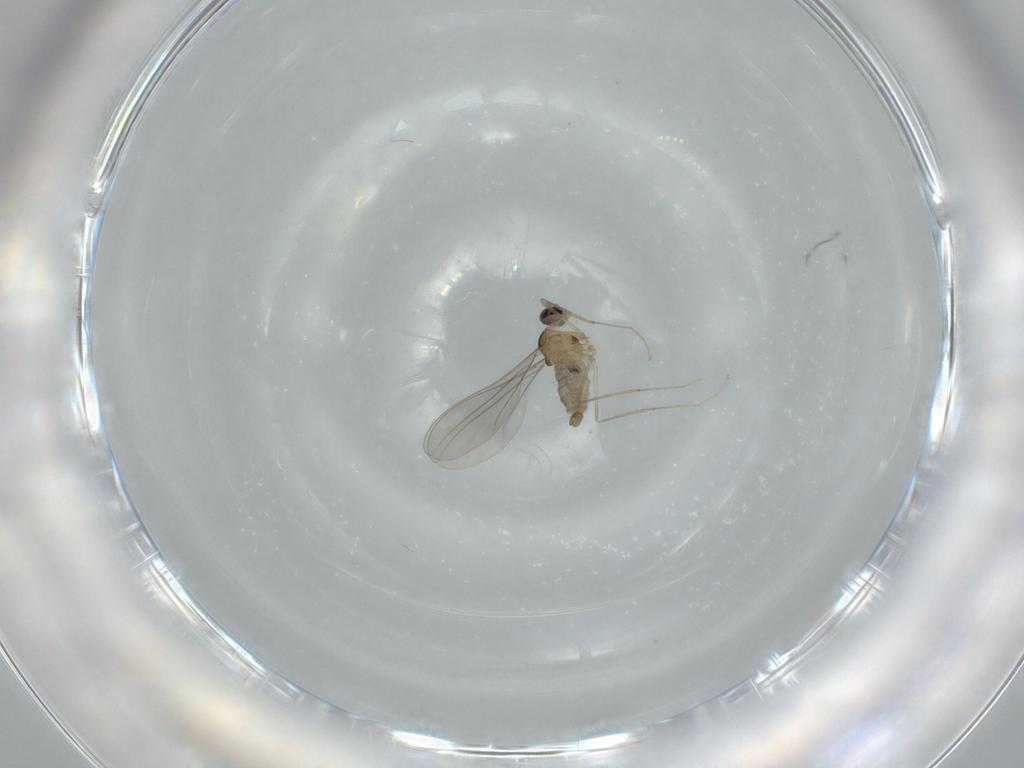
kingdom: Animalia
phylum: Arthropoda
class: Insecta
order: Diptera
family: Cecidomyiidae
